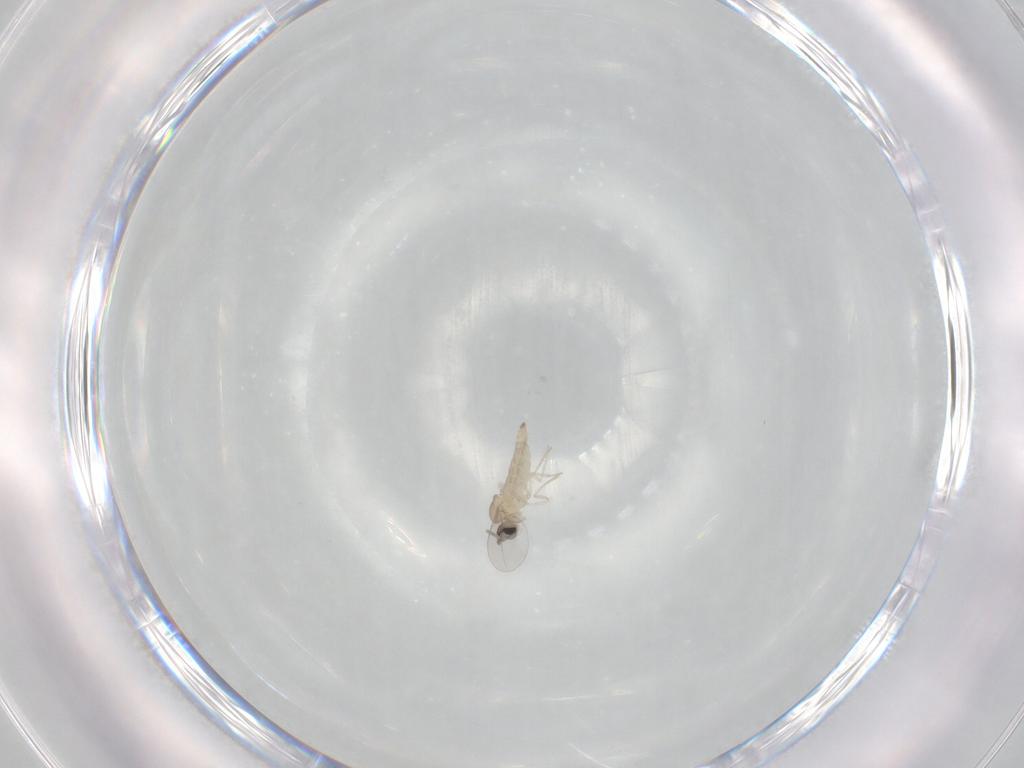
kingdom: Animalia
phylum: Arthropoda
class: Insecta
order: Diptera
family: Cecidomyiidae
